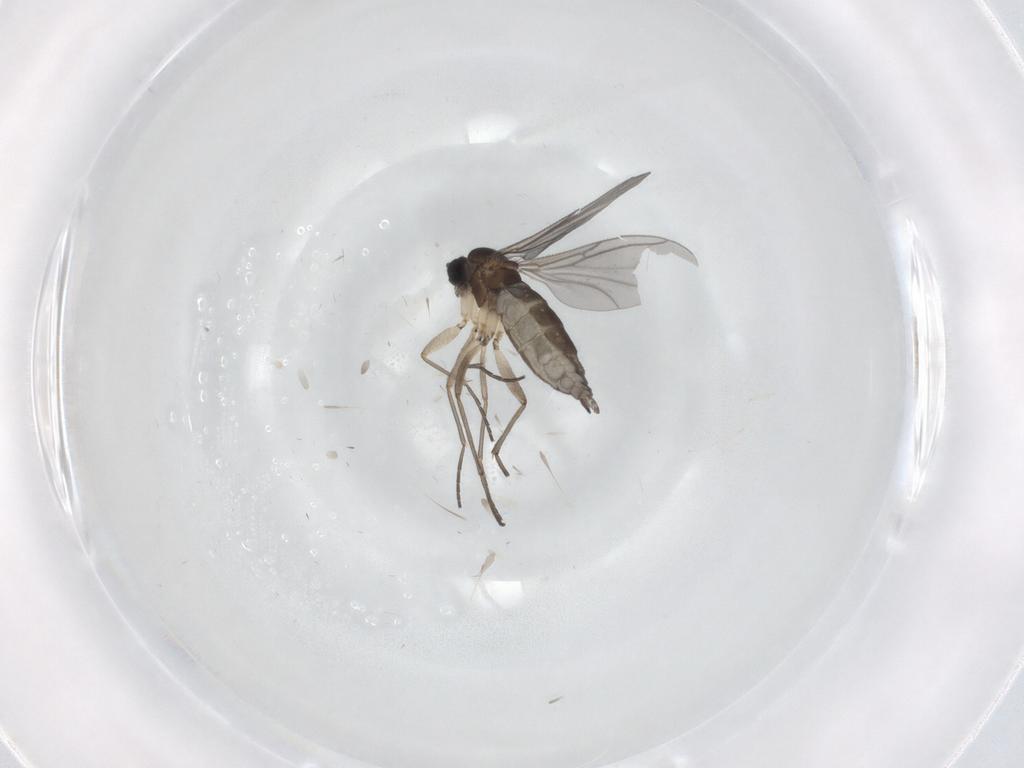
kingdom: Animalia
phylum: Arthropoda
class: Insecta
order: Diptera
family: Sciaridae
